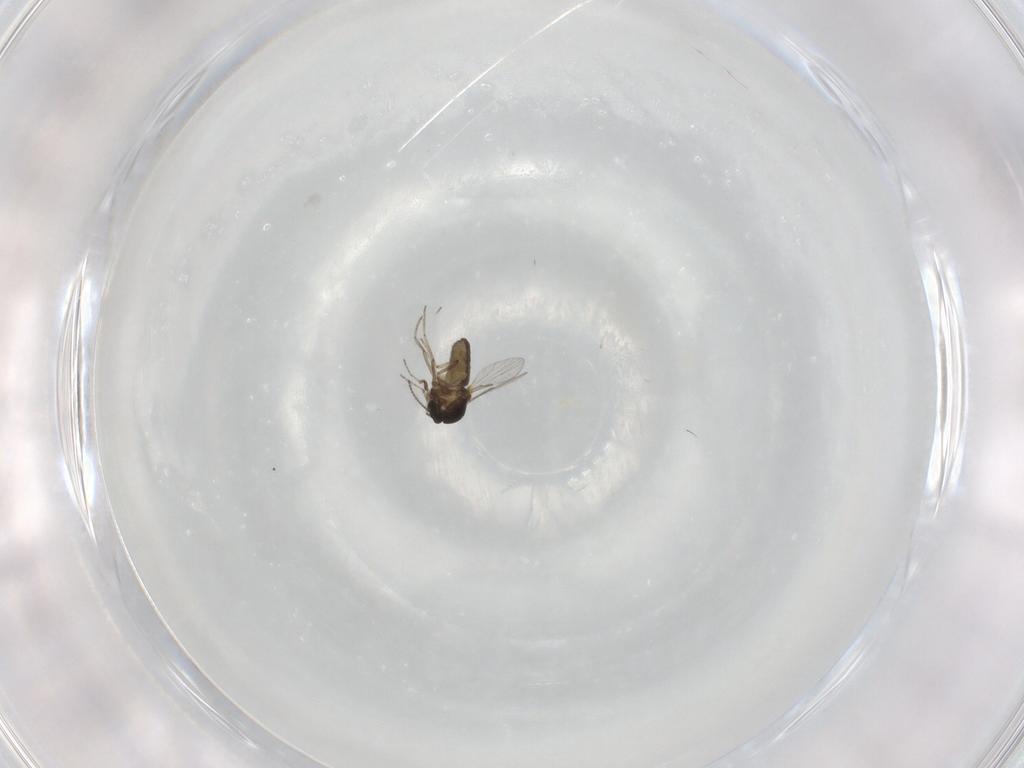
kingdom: Animalia
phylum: Arthropoda
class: Insecta
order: Diptera
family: Ceratopogonidae
